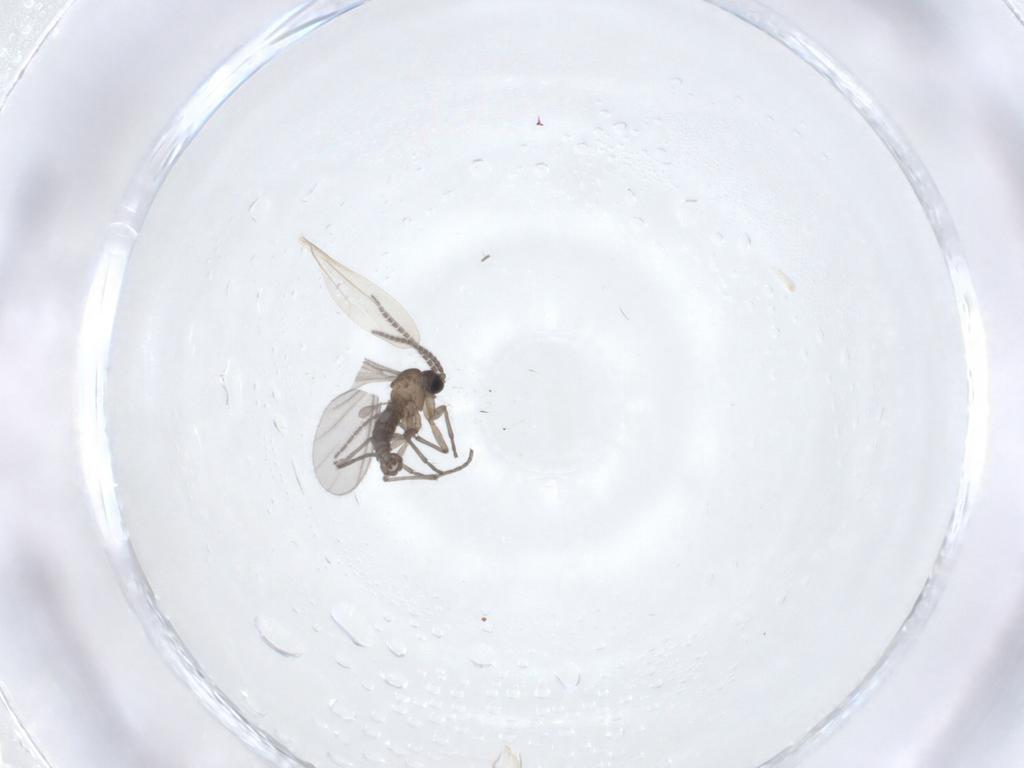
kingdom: Animalia
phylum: Arthropoda
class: Insecta
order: Diptera
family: Sciaridae
